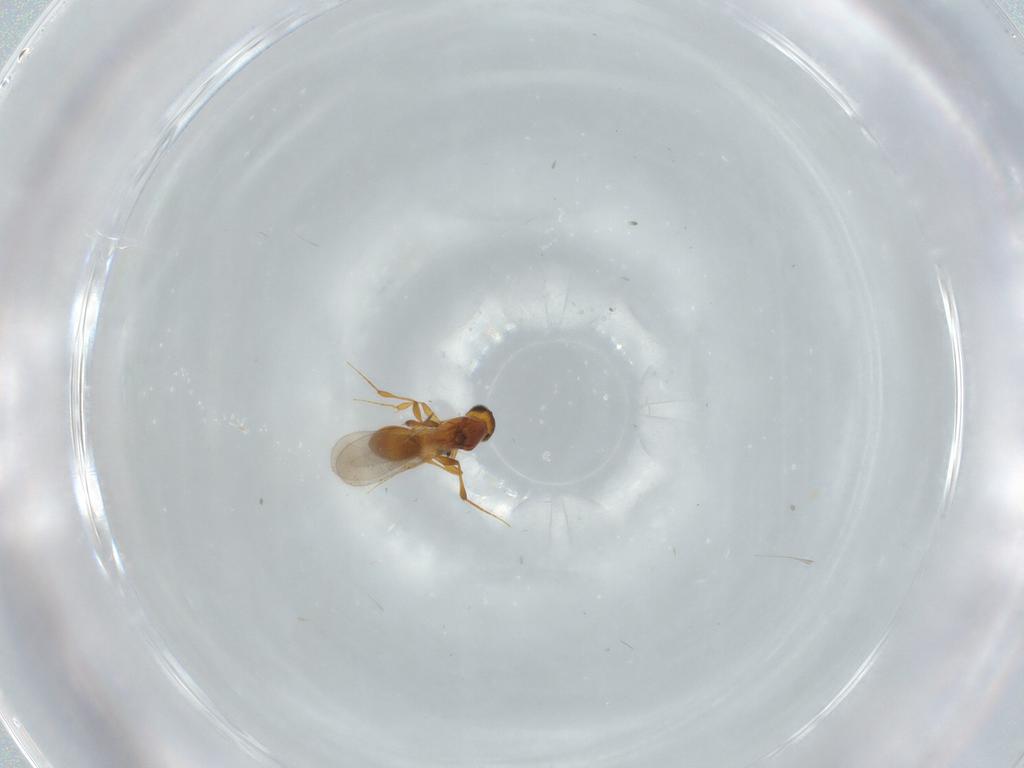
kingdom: Animalia
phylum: Arthropoda
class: Insecta
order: Hymenoptera
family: Platygastridae
